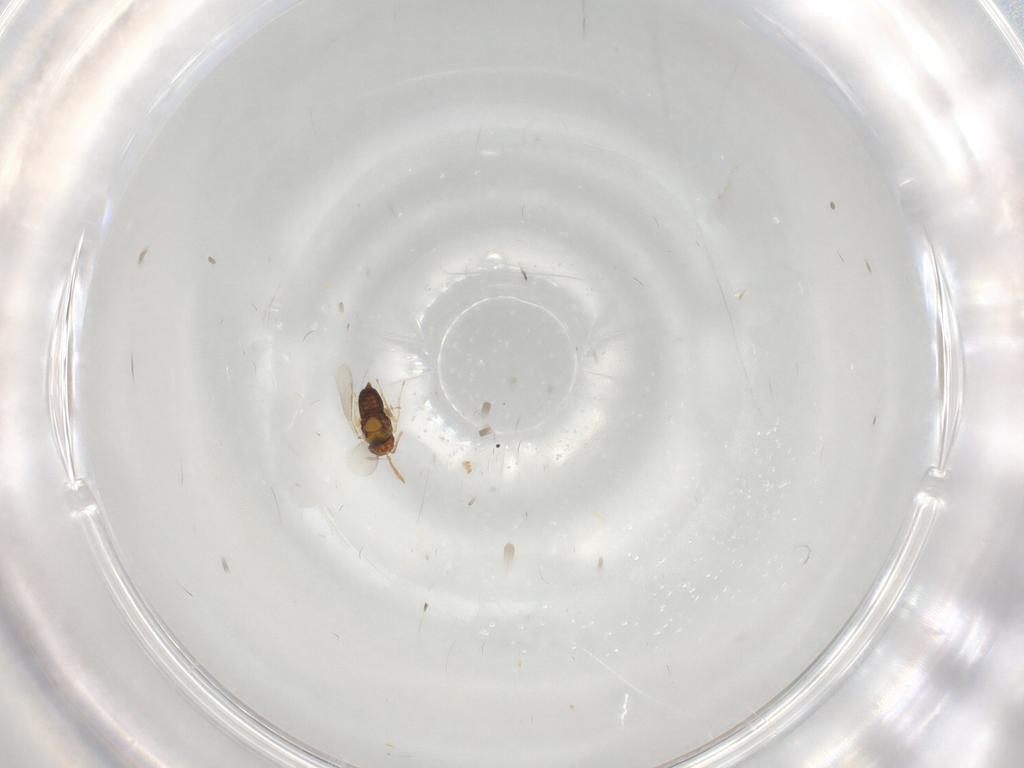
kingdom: Animalia
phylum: Arthropoda
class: Insecta
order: Hymenoptera
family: Aphelinidae
